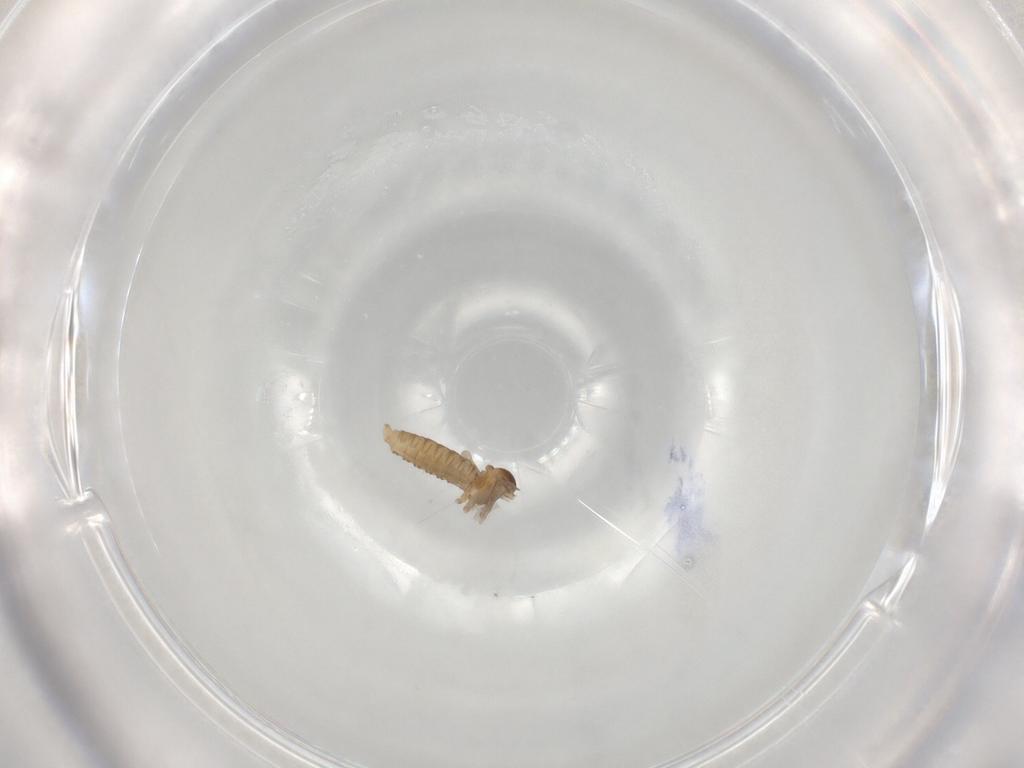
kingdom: Animalia
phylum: Arthropoda
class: Insecta
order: Diptera
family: Cecidomyiidae
